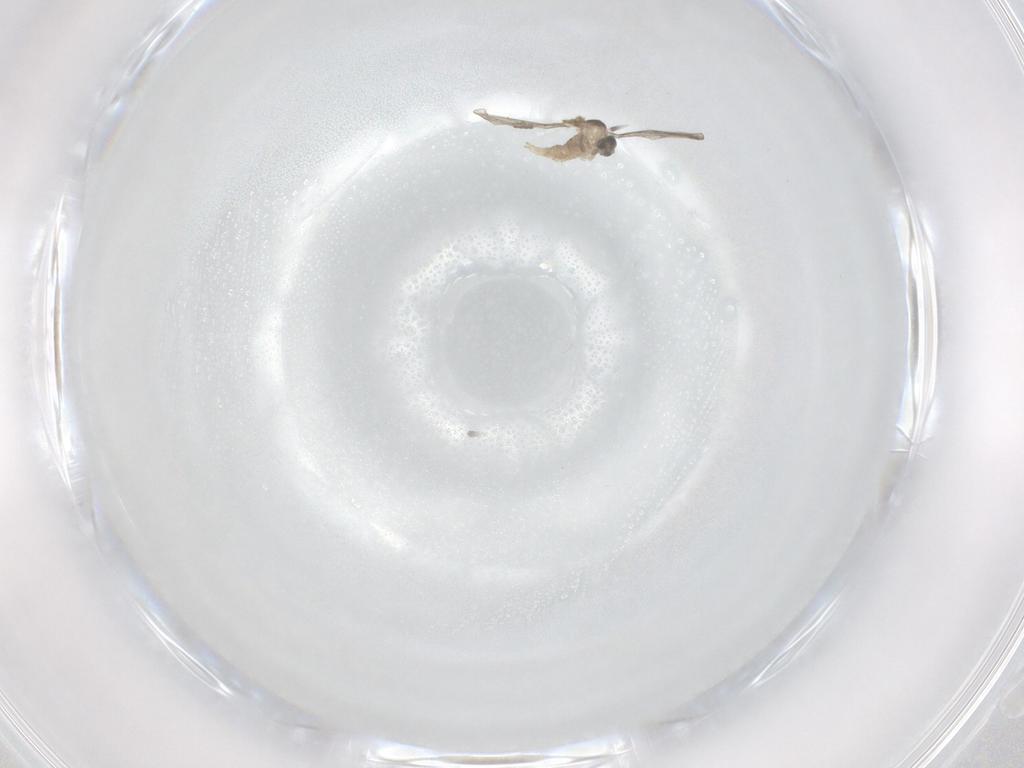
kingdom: Animalia
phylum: Arthropoda
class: Insecta
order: Diptera
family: Cecidomyiidae
